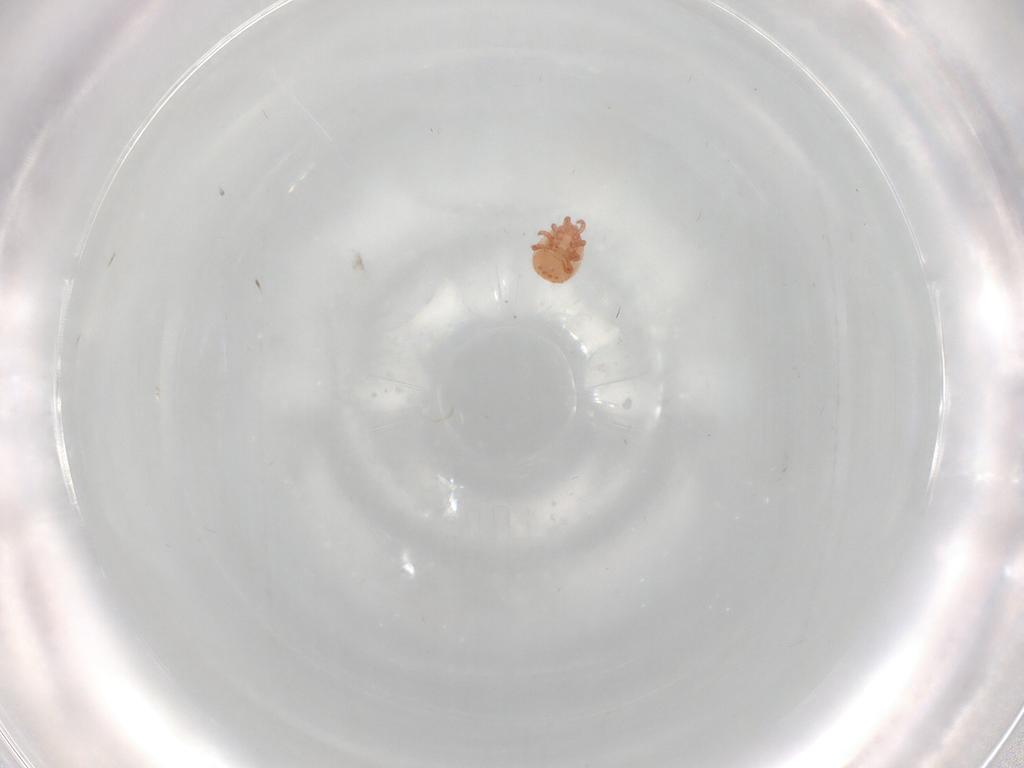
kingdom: Animalia
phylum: Arthropoda
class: Arachnida
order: Mesostigmata
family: Zerconidae
